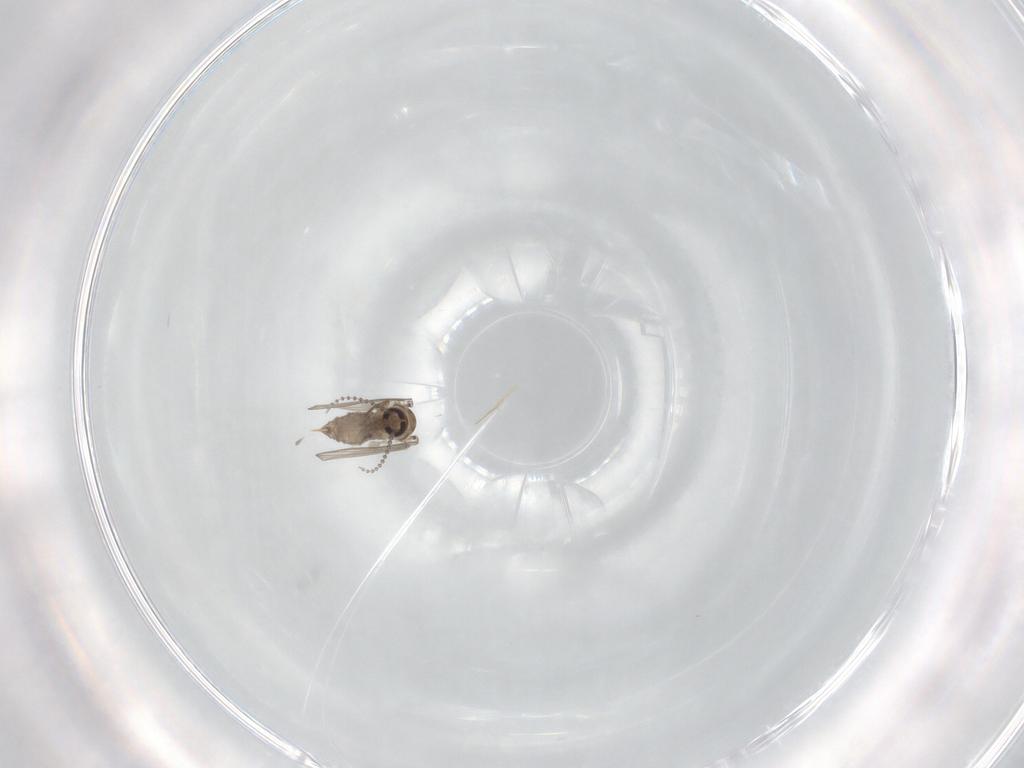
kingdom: Animalia
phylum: Arthropoda
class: Insecta
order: Diptera
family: Psychodidae
